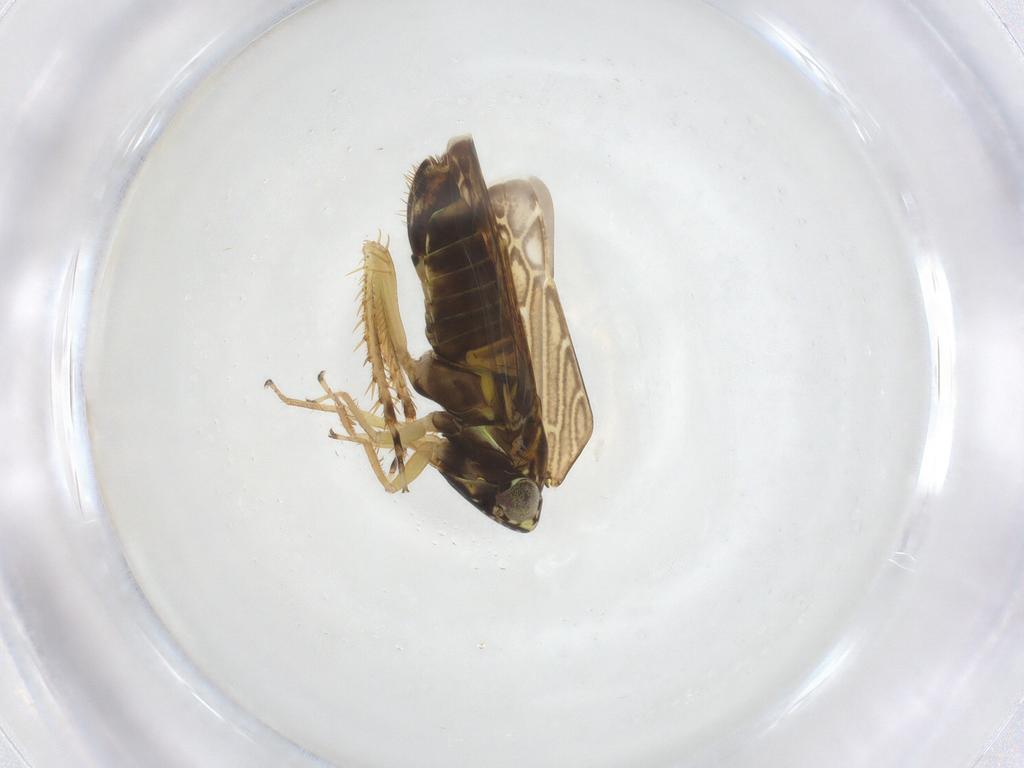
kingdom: Animalia
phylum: Arthropoda
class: Insecta
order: Hemiptera
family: Cicadellidae
